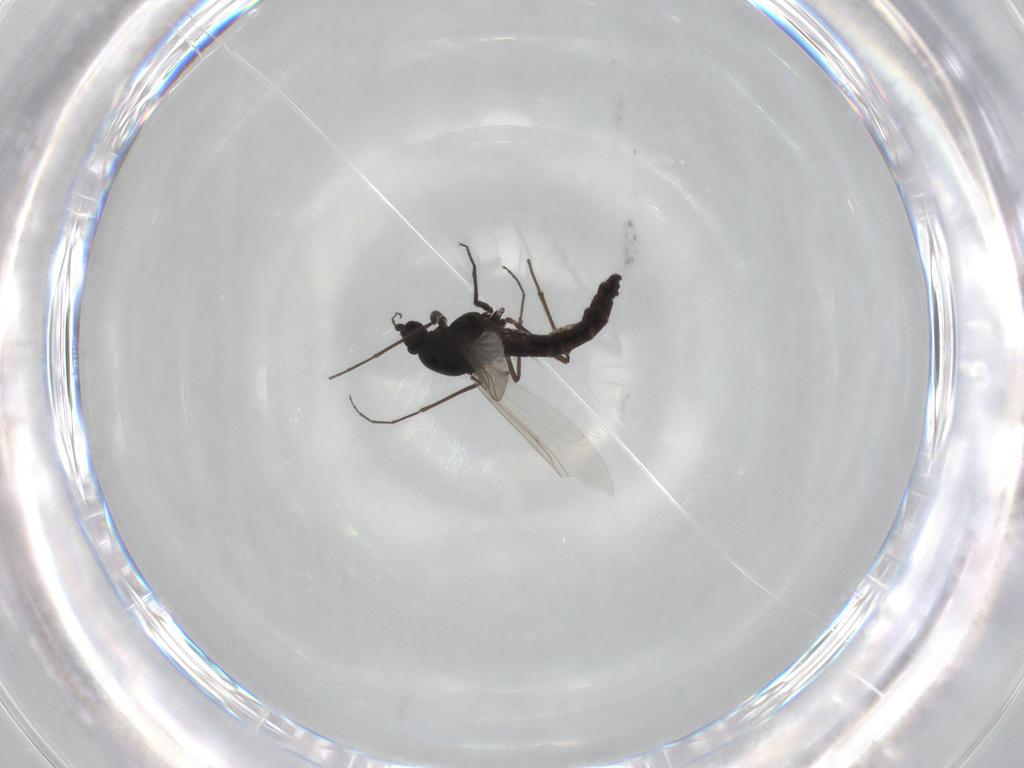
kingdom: Animalia
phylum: Arthropoda
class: Insecta
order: Diptera
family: Chironomidae
